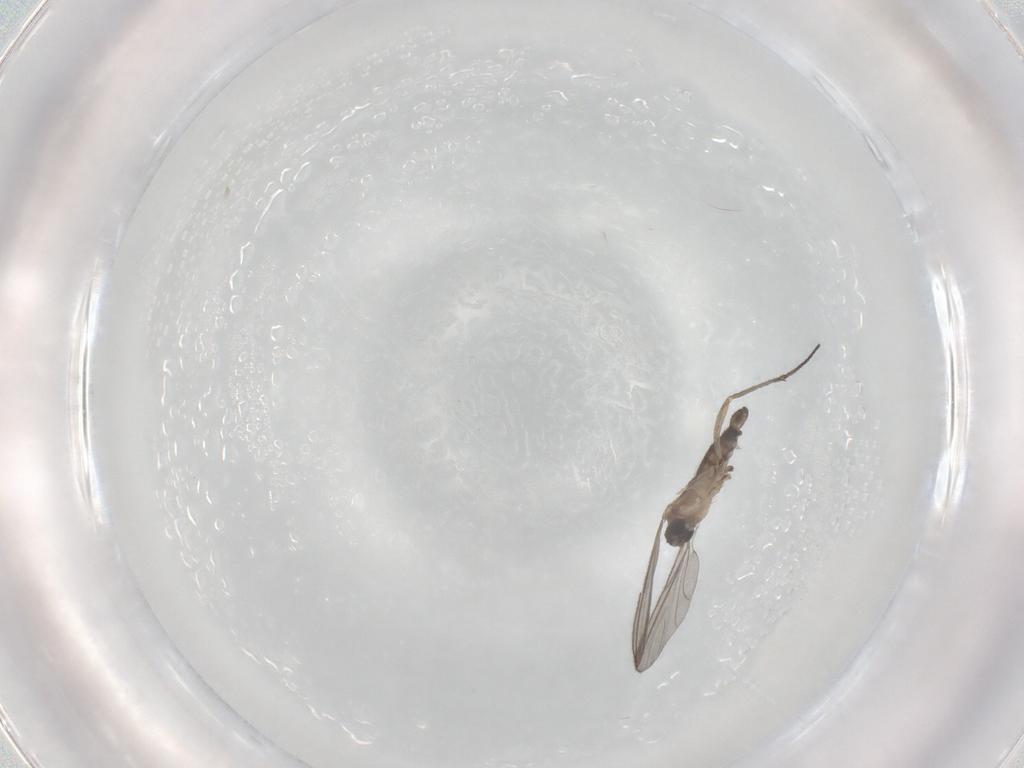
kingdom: Animalia
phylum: Arthropoda
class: Insecta
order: Diptera
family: Sciaridae
